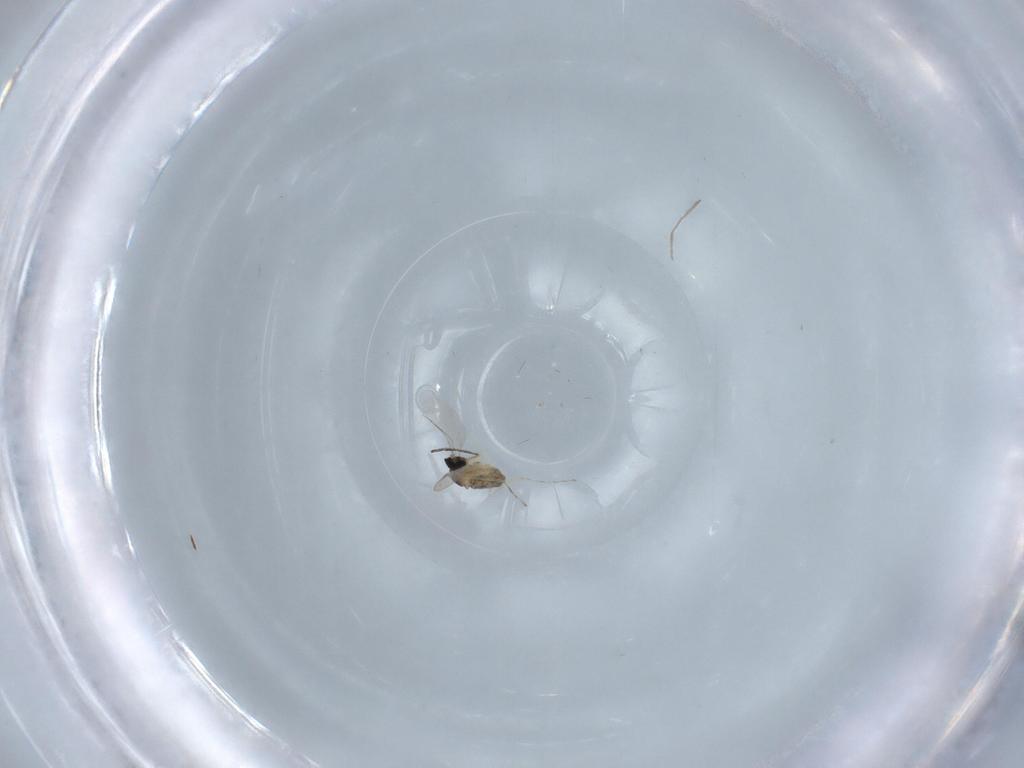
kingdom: Animalia
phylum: Arthropoda
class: Insecta
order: Diptera
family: Chironomidae
